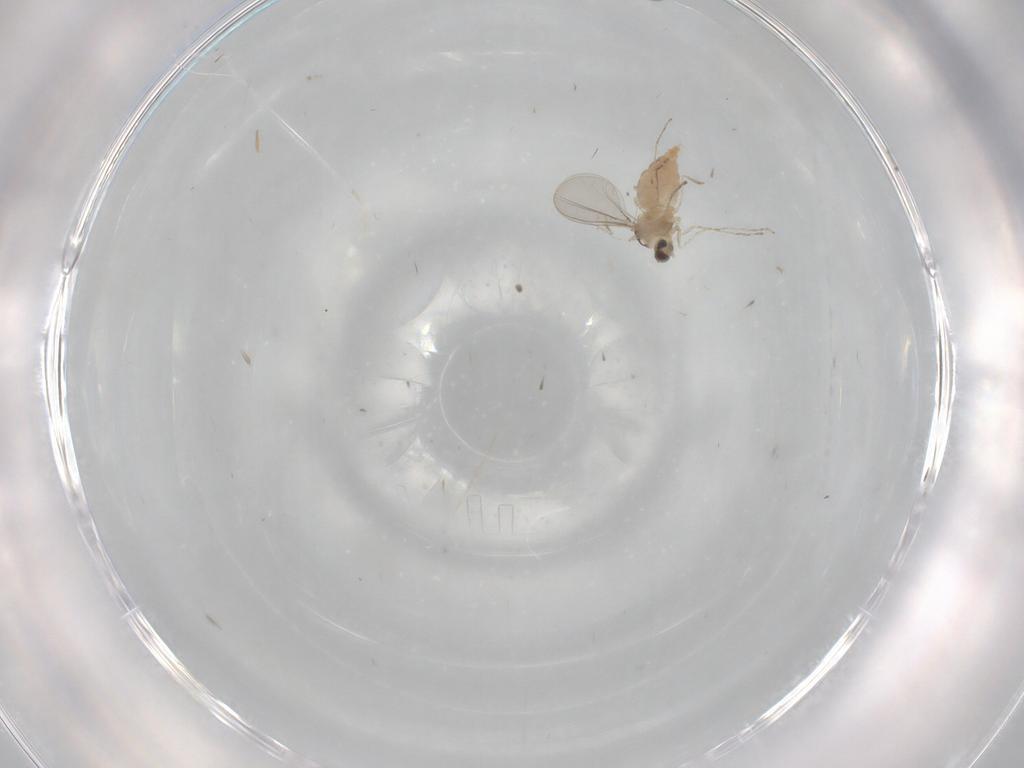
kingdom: Animalia
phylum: Arthropoda
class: Insecta
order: Diptera
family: Cecidomyiidae
